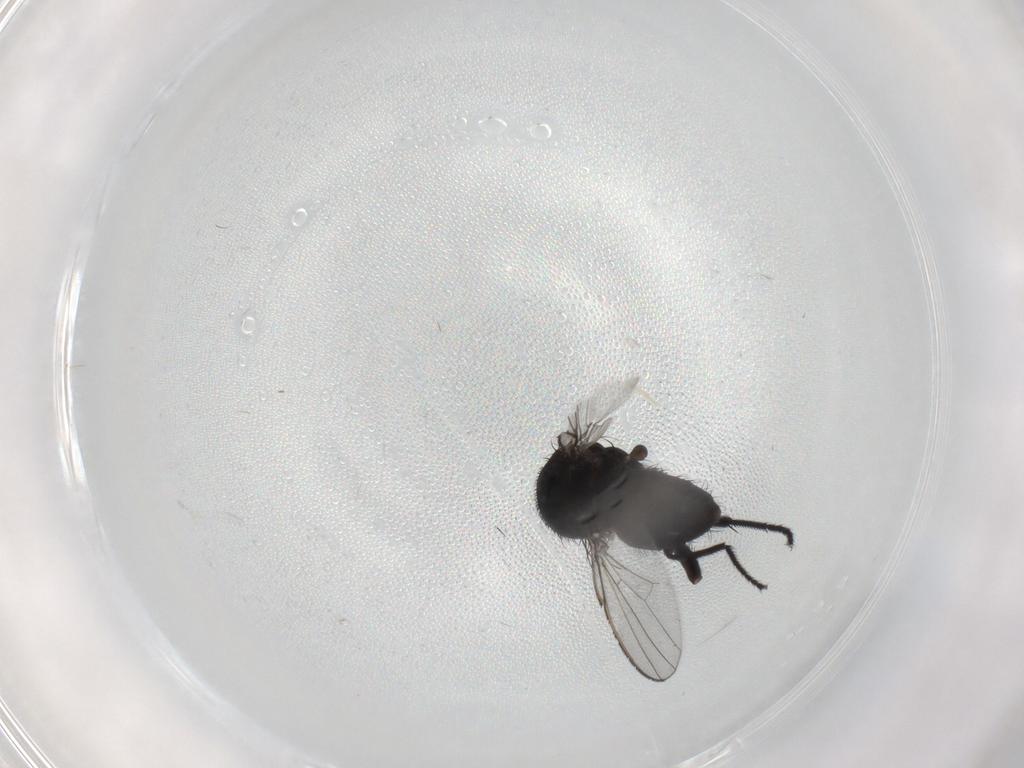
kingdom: Animalia
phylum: Arthropoda
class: Insecta
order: Diptera
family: Milichiidae
